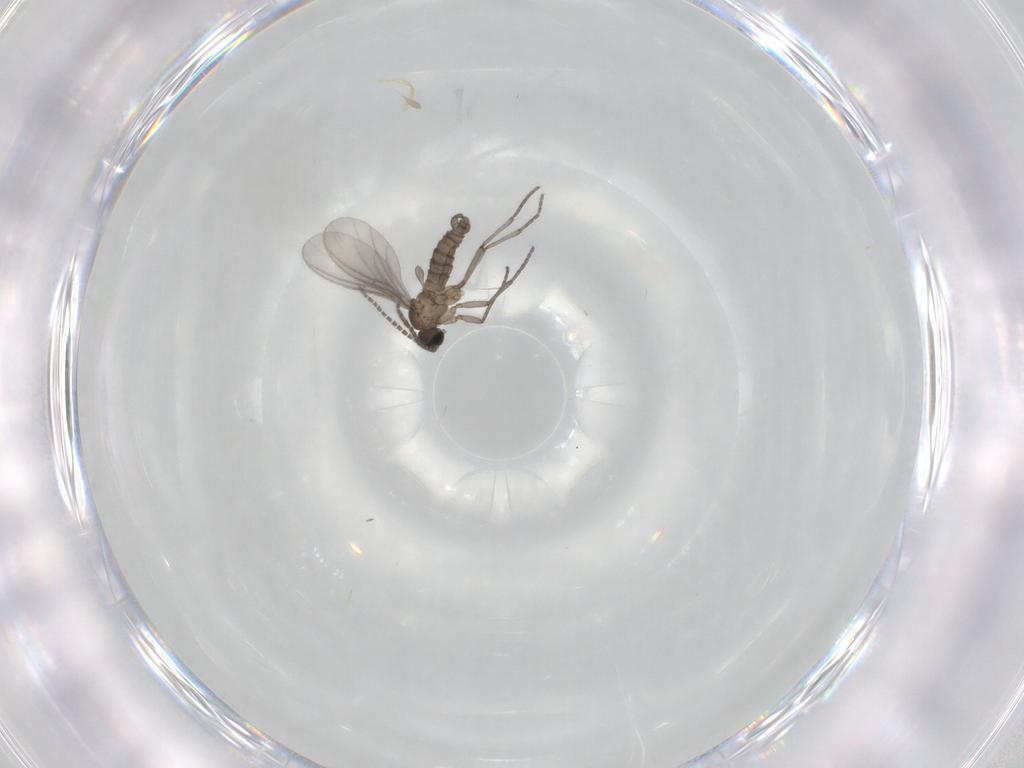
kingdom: Animalia
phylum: Arthropoda
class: Insecta
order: Diptera
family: Sciaridae
